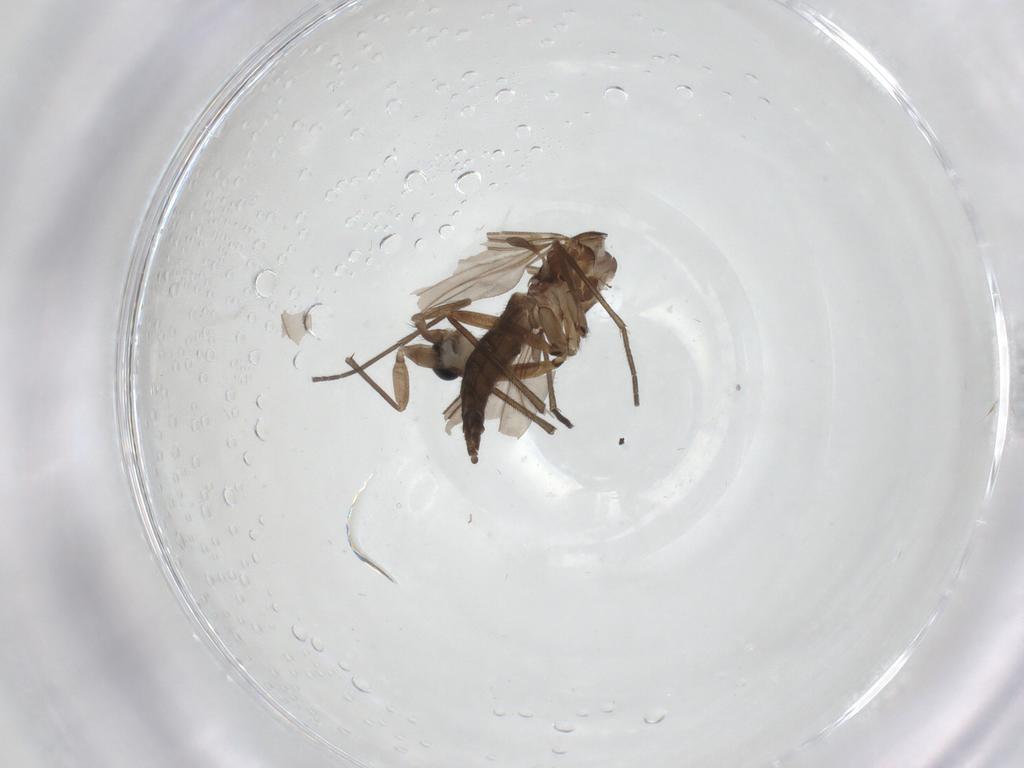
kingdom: Animalia
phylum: Arthropoda
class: Insecta
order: Diptera
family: Sciaridae
